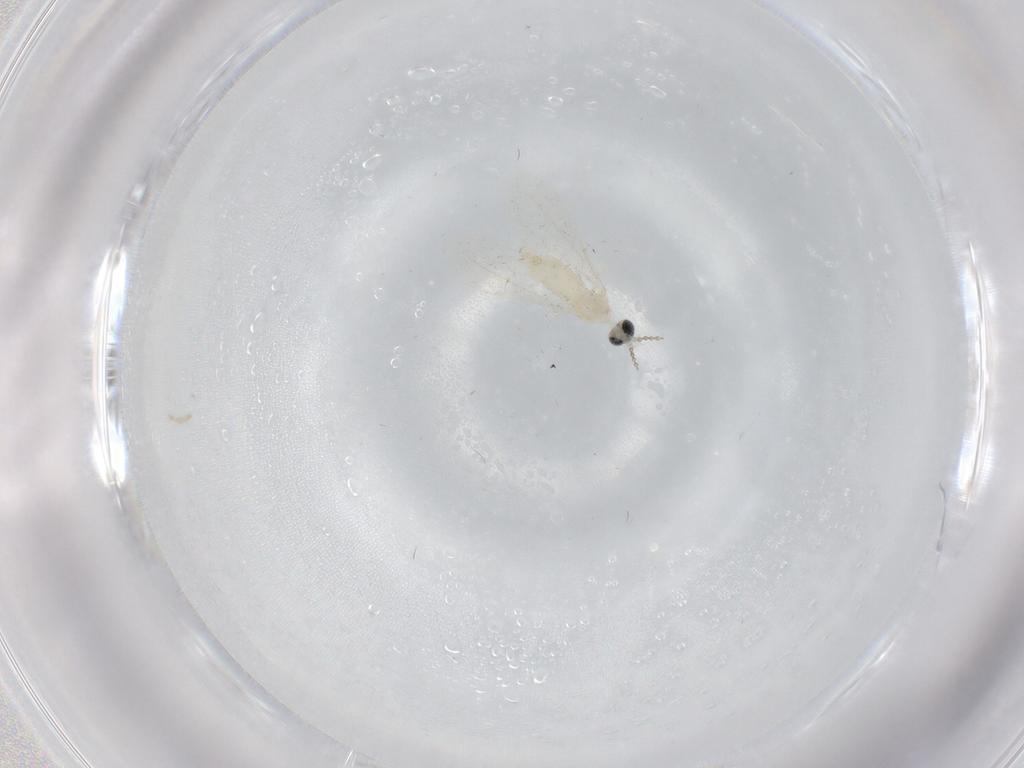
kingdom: Animalia
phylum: Arthropoda
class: Insecta
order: Diptera
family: Cecidomyiidae
